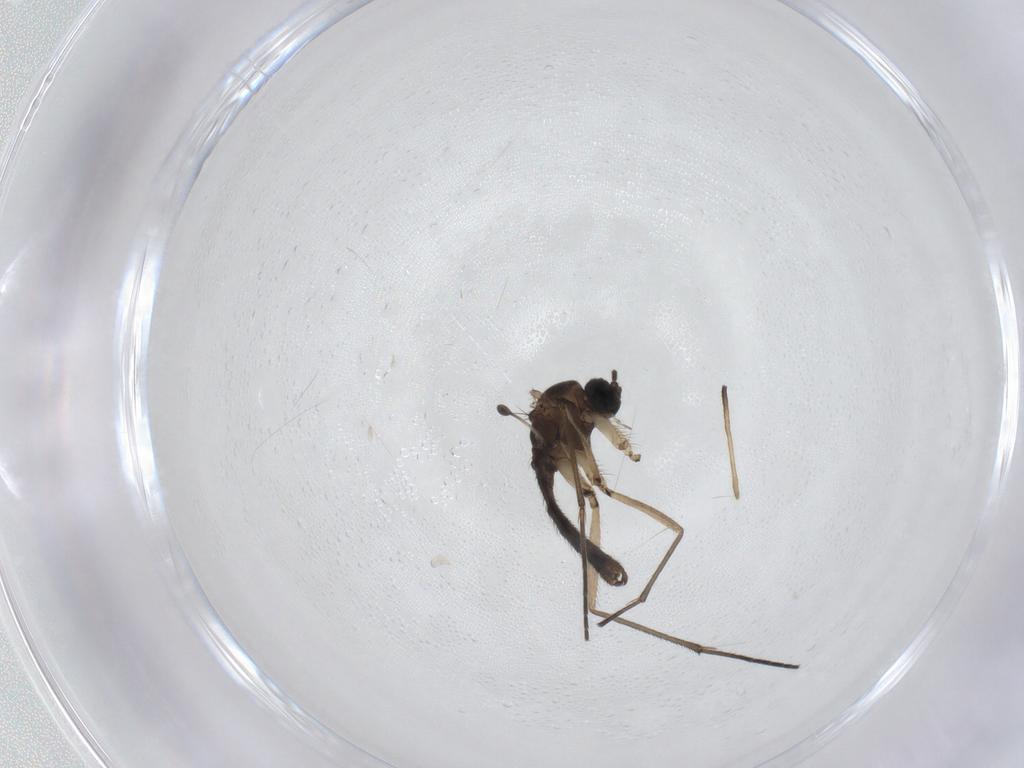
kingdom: Animalia
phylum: Arthropoda
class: Insecta
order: Diptera
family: Sciaridae
